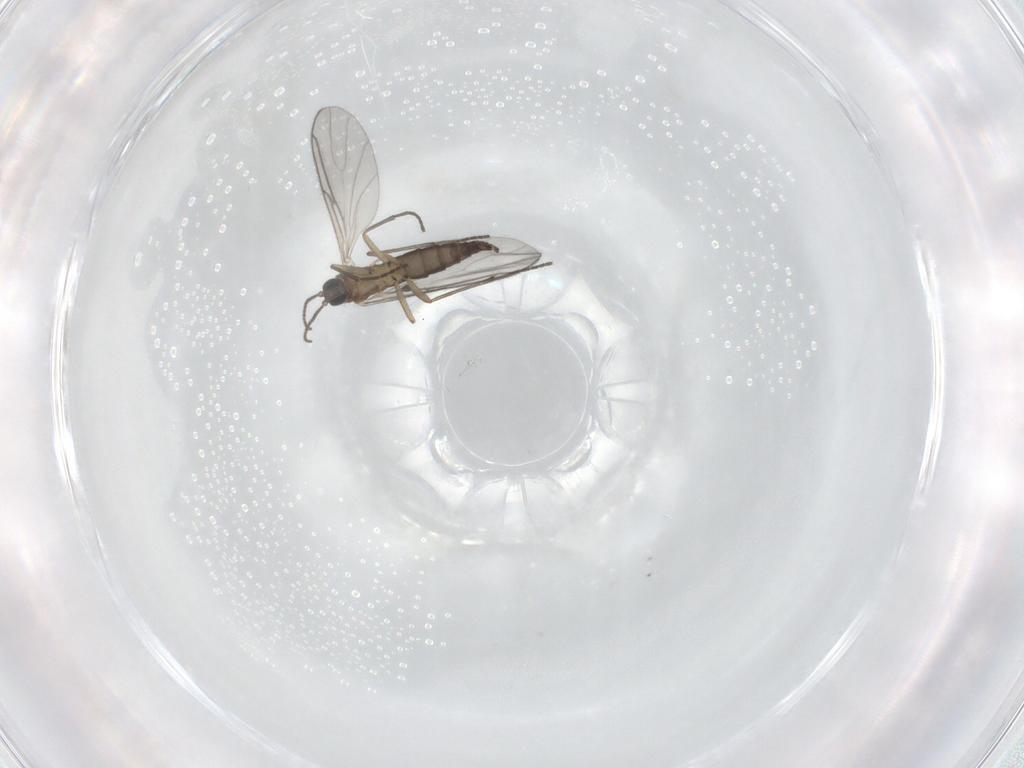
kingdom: Animalia
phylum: Arthropoda
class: Insecta
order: Diptera
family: Sciaridae
